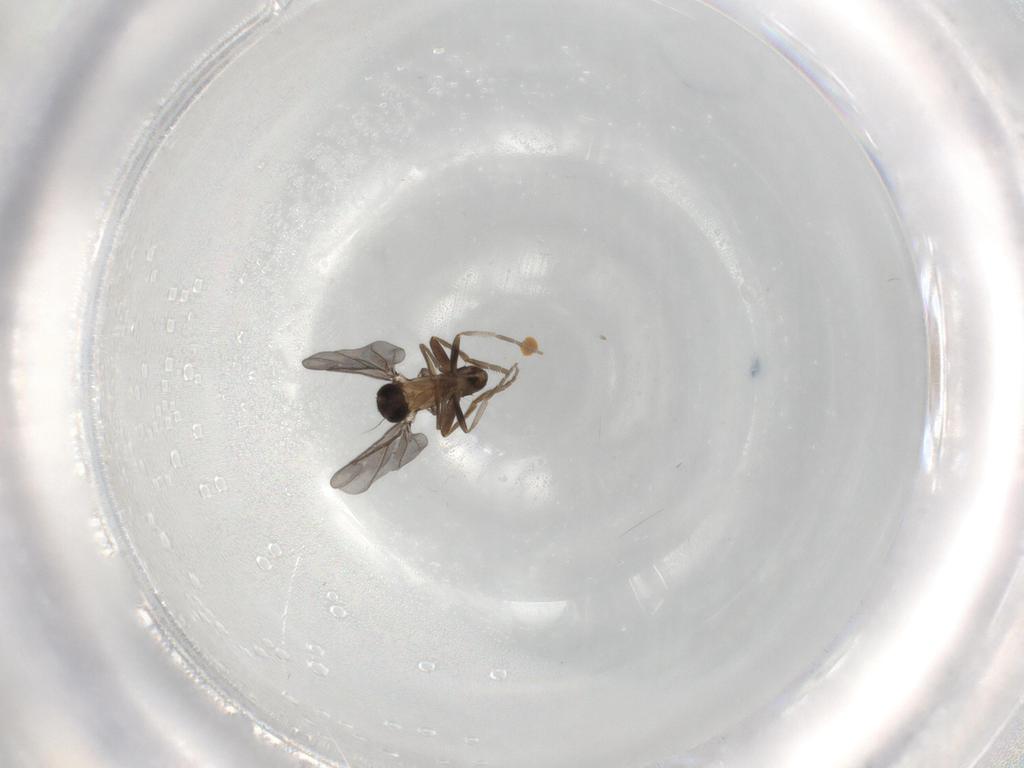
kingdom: Animalia
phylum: Arthropoda
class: Insecta
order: Diptera
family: Phoridae
